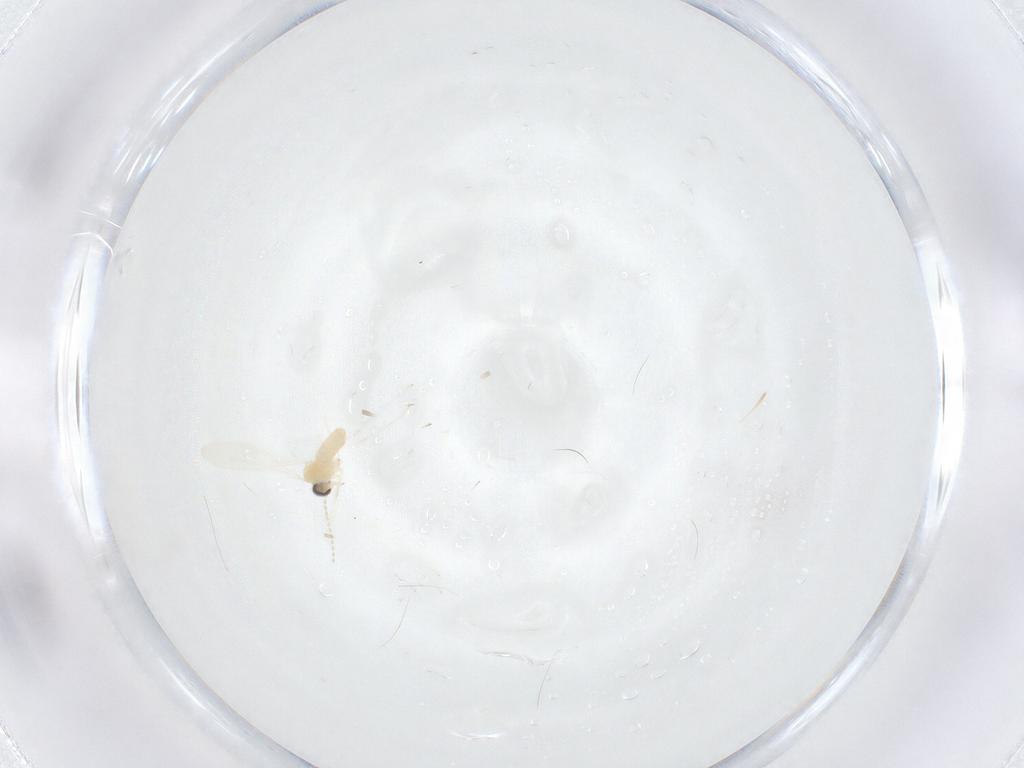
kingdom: Animalia
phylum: Arthropoda
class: Insecta
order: Diptera
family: Cecidomyiidae
